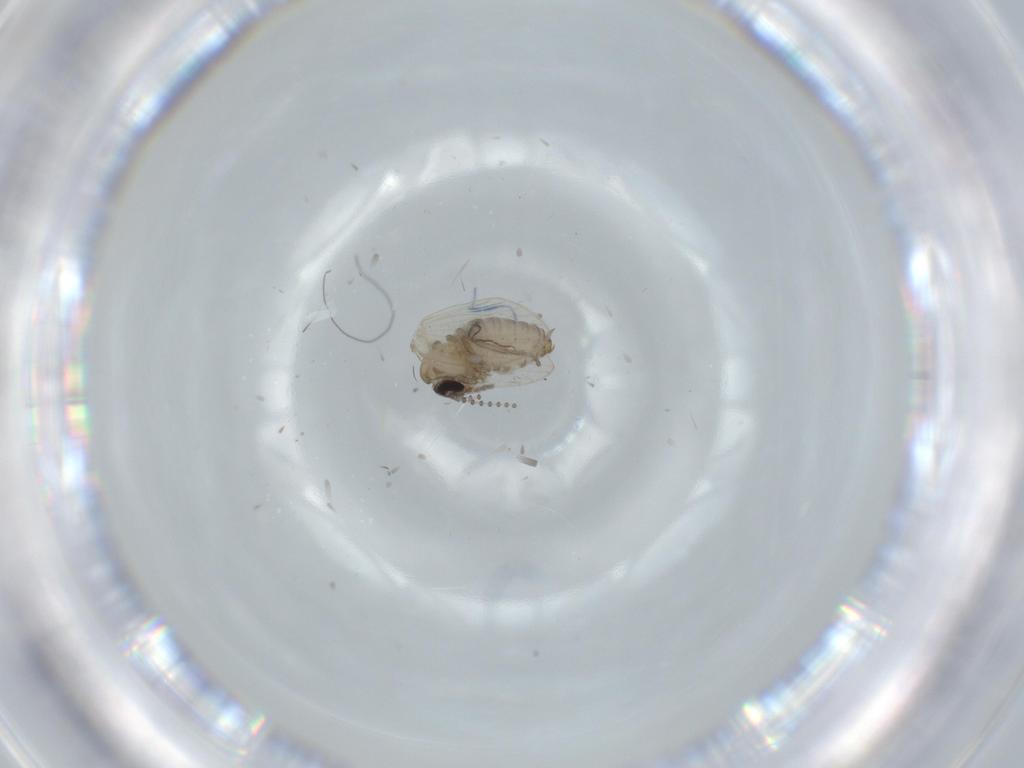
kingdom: Animalia
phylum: Arthropoda
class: Insecta
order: Diptera
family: Psychodidae
